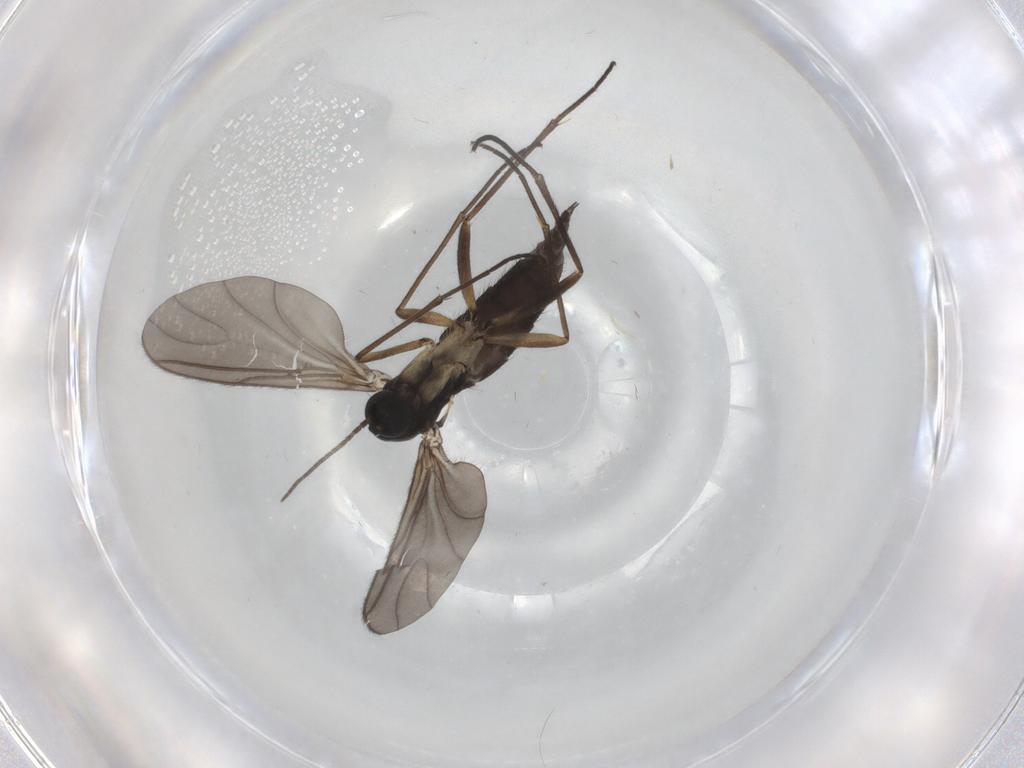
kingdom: Animalia
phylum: Arthropoda
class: Insecta
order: Diptera
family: Sciaridae
